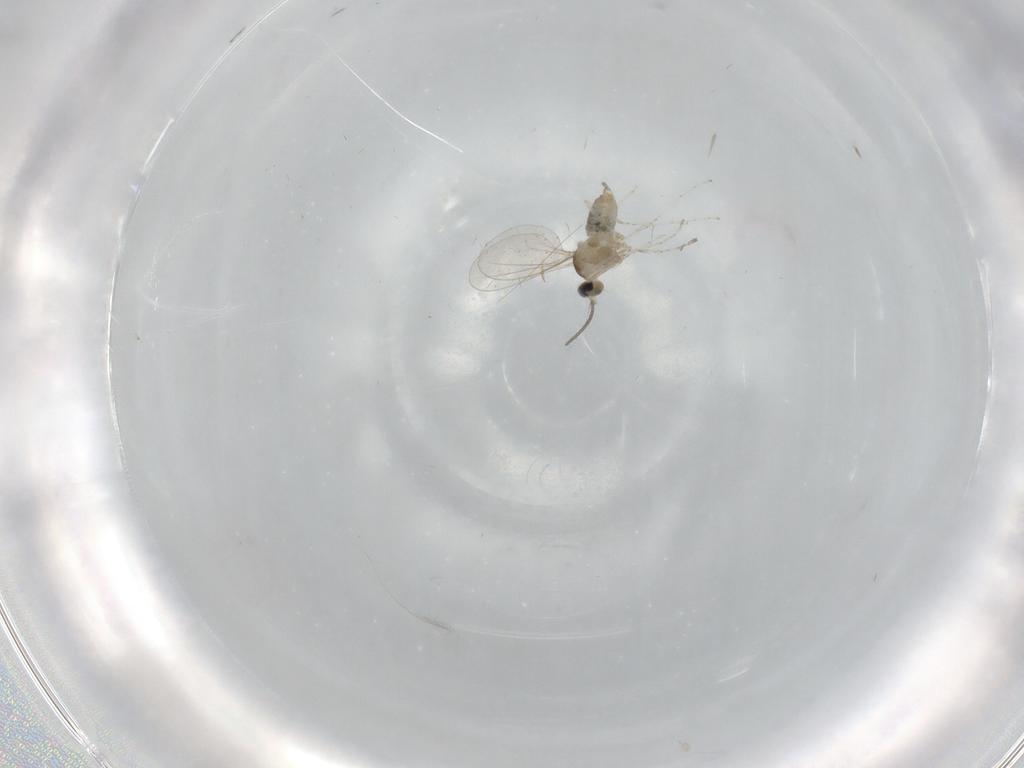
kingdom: Animalia
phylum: Arthropoda
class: Insecta
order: Diptera
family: Cecidomyiidae
